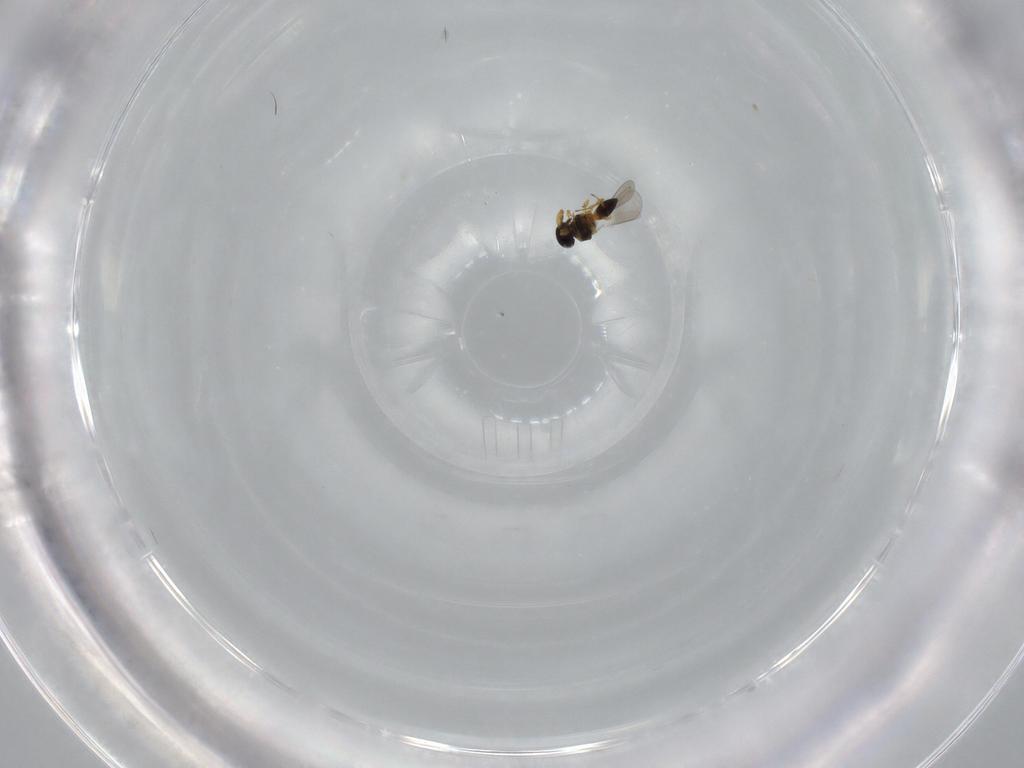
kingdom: Animalia
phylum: Arthropoda
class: Insecta
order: Hymenoptera
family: Platygastridae
